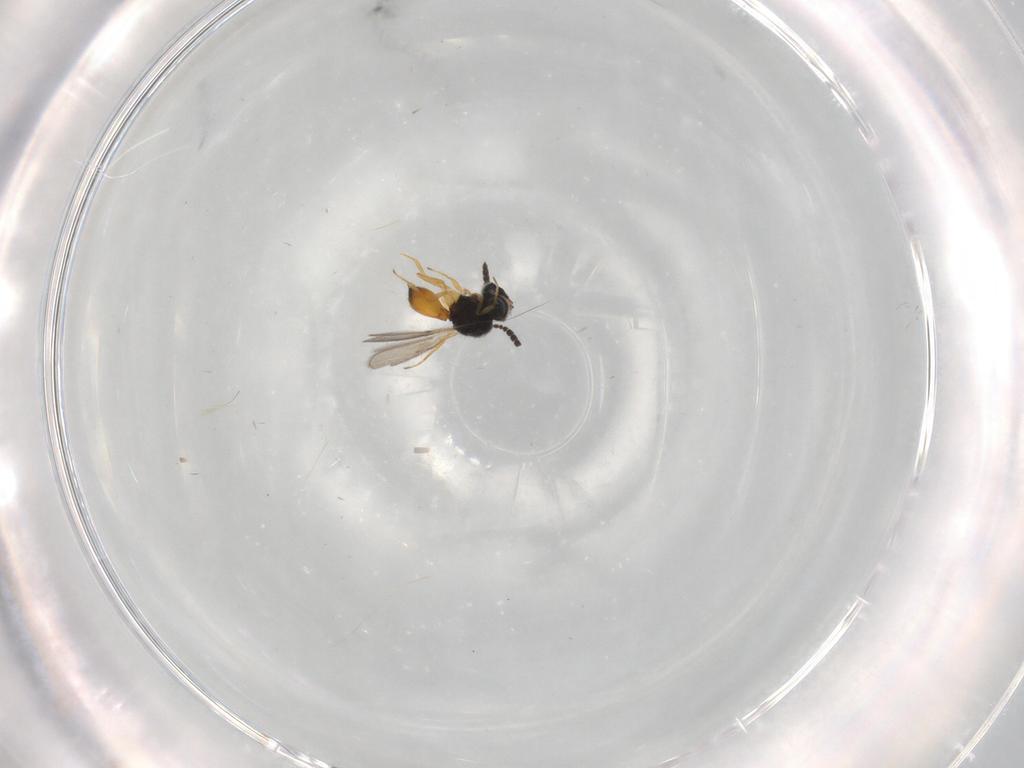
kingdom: Animalia
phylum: Arthropoda
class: Insecta
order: Hymenoptera
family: Scelionidae
